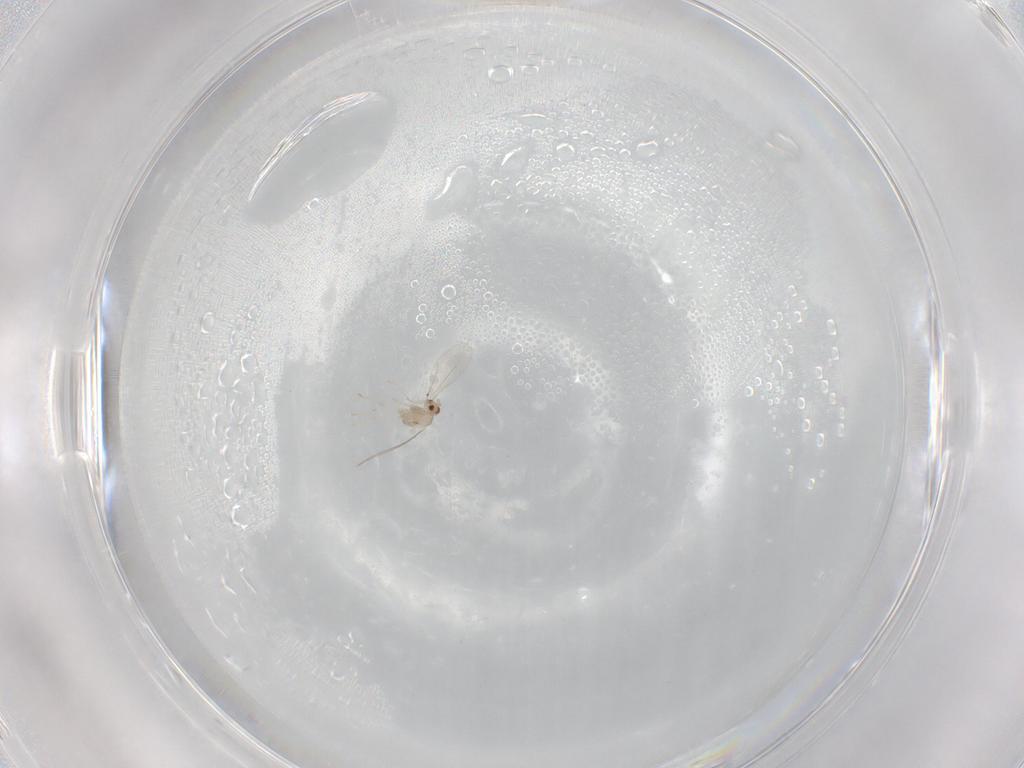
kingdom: Animalia
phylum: Arthropoda
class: Insecta
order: Diptera
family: Cecidomyiidae
